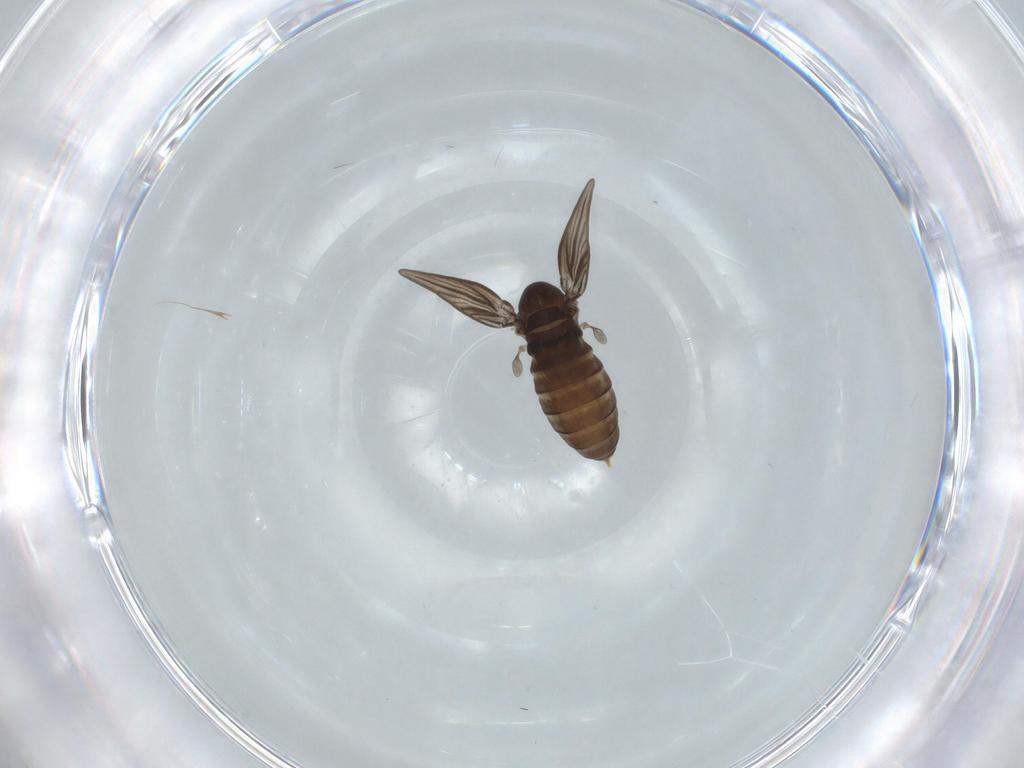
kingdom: Animalia
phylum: Arthropoda
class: Insecta
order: Diptera
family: Psychodidae
